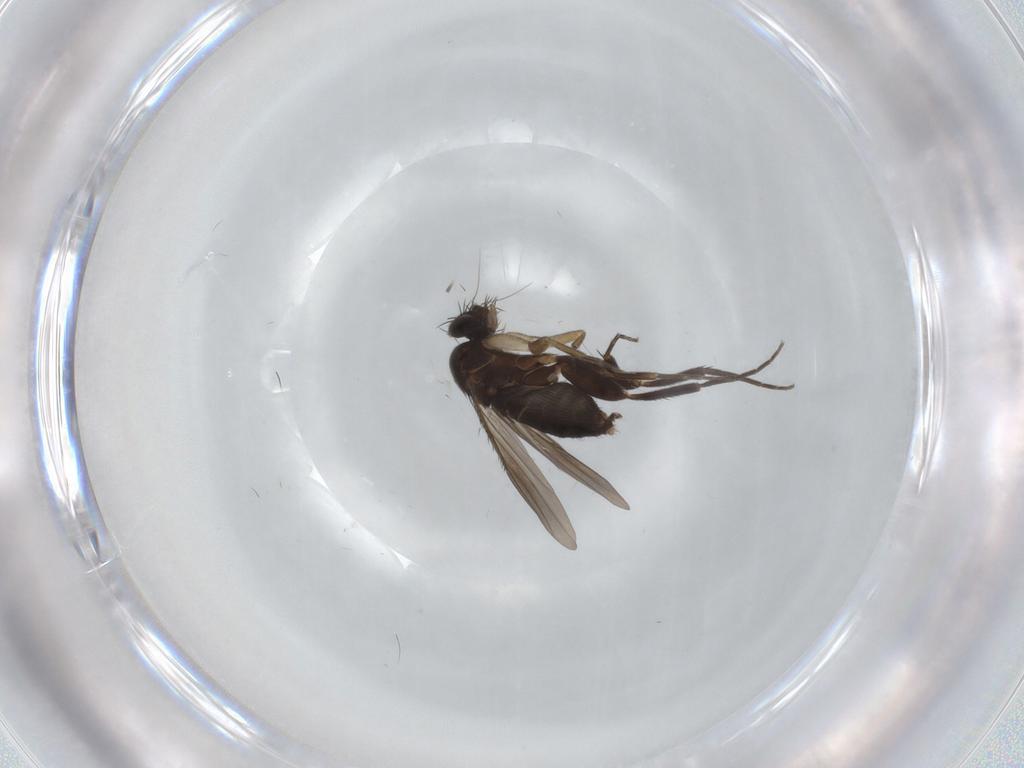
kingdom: Animalia
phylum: Arthropoda
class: Insecta
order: Diptera
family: Phoridae
